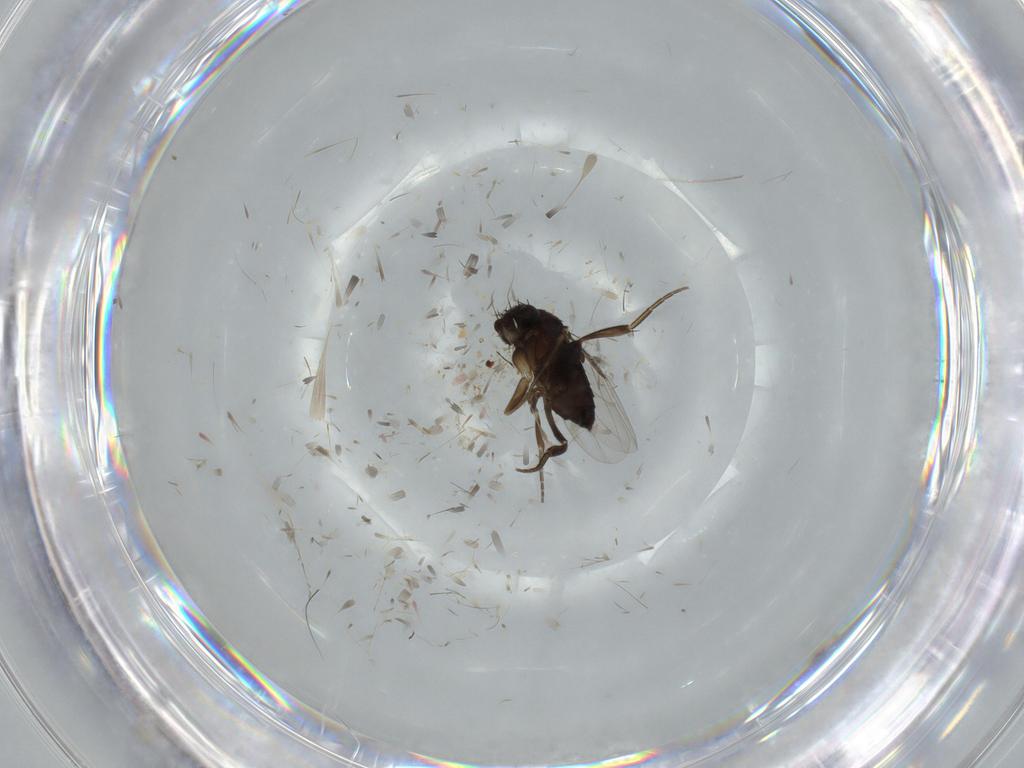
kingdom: Animalia
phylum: Arthropoda
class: Insecta
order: Diptera
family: Phoridae
